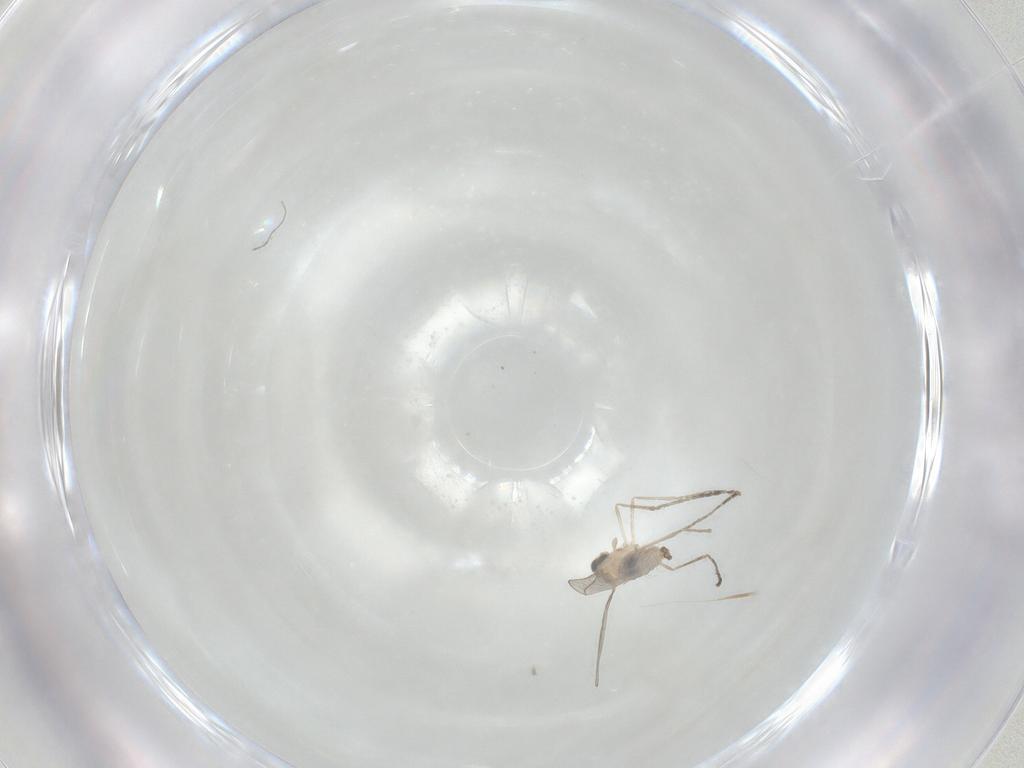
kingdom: Animalia
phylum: Arthropoda
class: Insecta
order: Diptera
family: Cecidomyiidae
